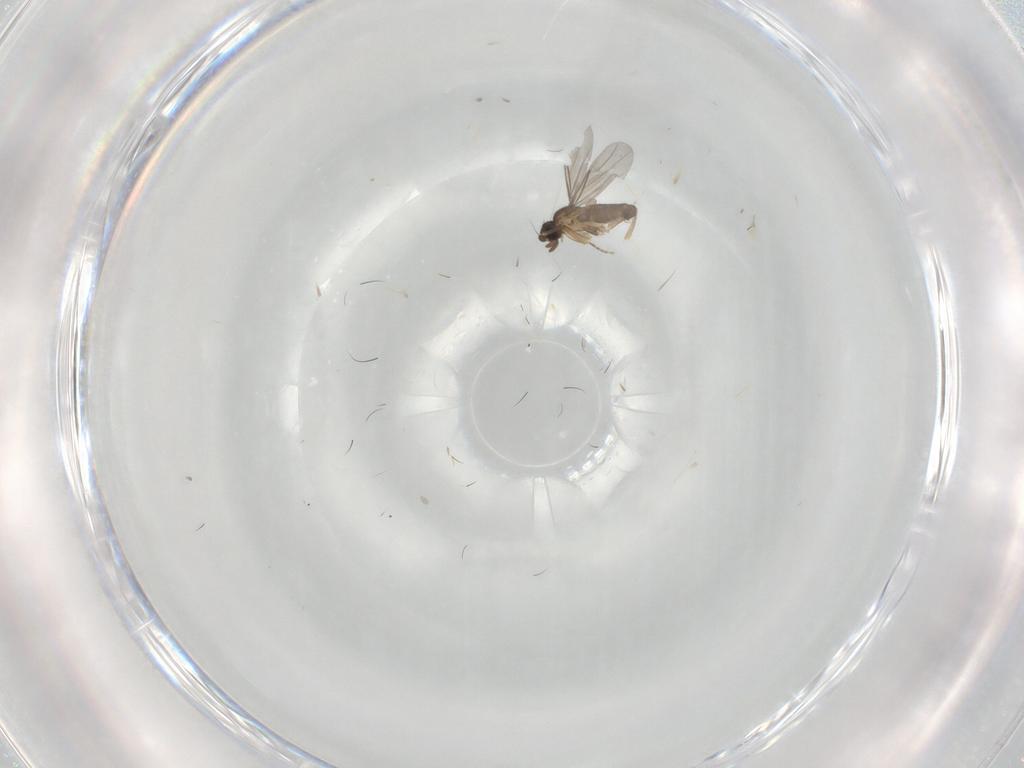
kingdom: Animalia
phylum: Arthropoda
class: Insecta
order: Diptera
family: Phoridae
